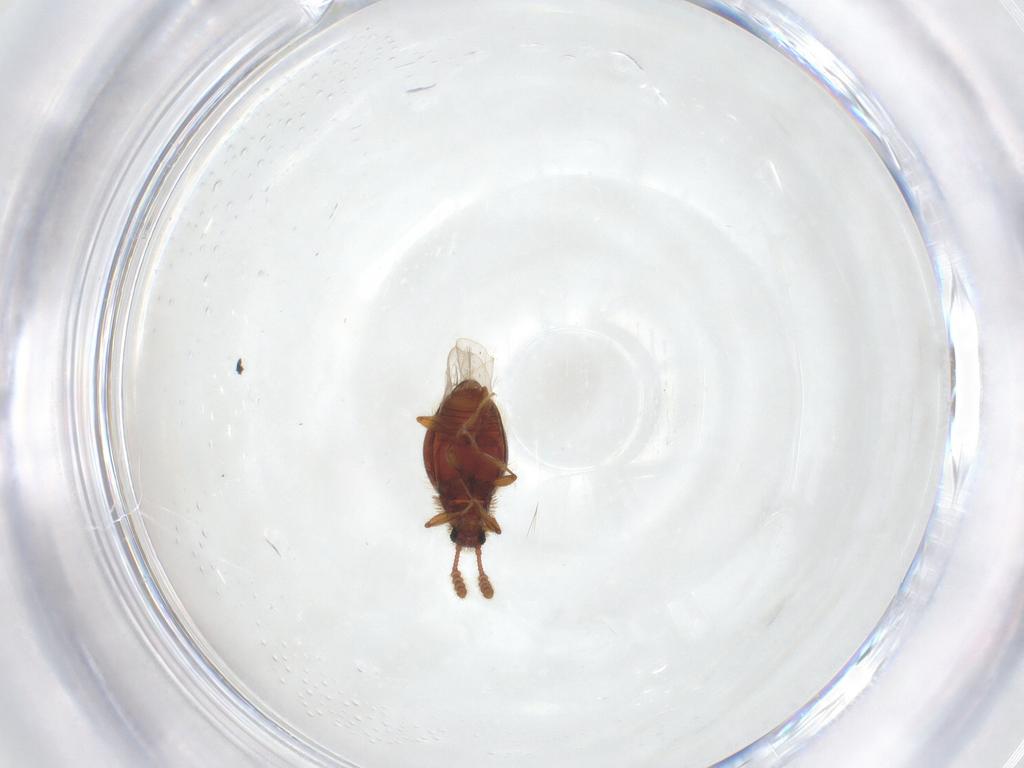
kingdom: Animalia
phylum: Arthropoda
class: Insecta
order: Coleoptera
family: Staphylinidae
